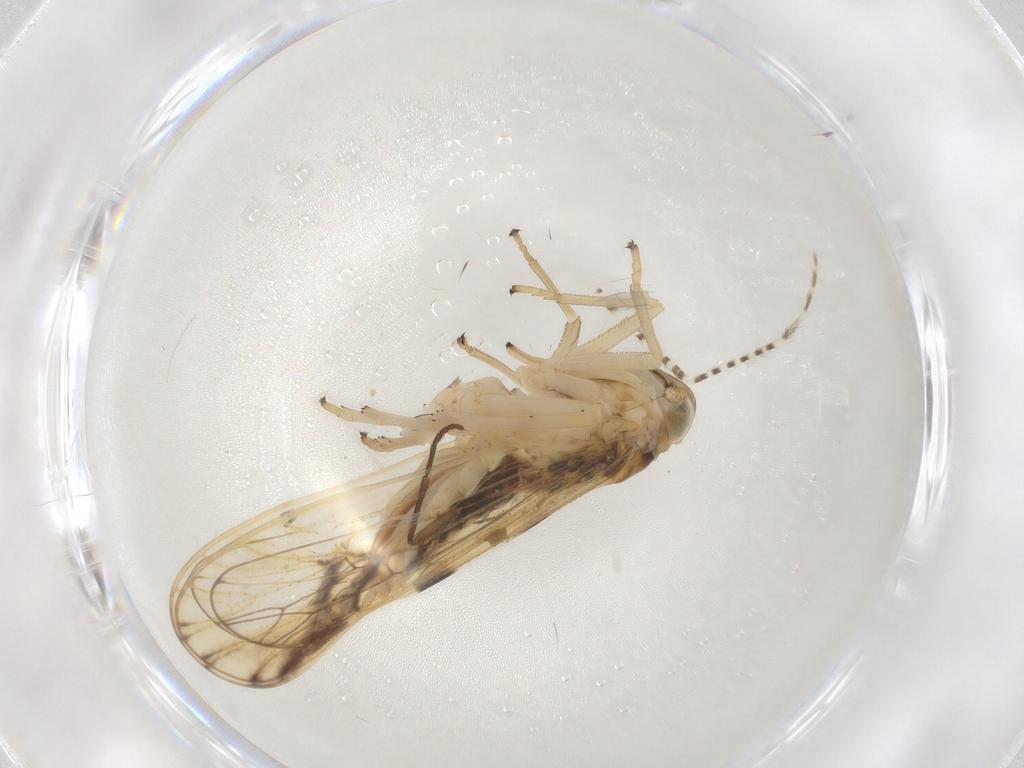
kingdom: Animalia
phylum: Arthropoda
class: Insecta
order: Hemiptera
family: Delphacidae
